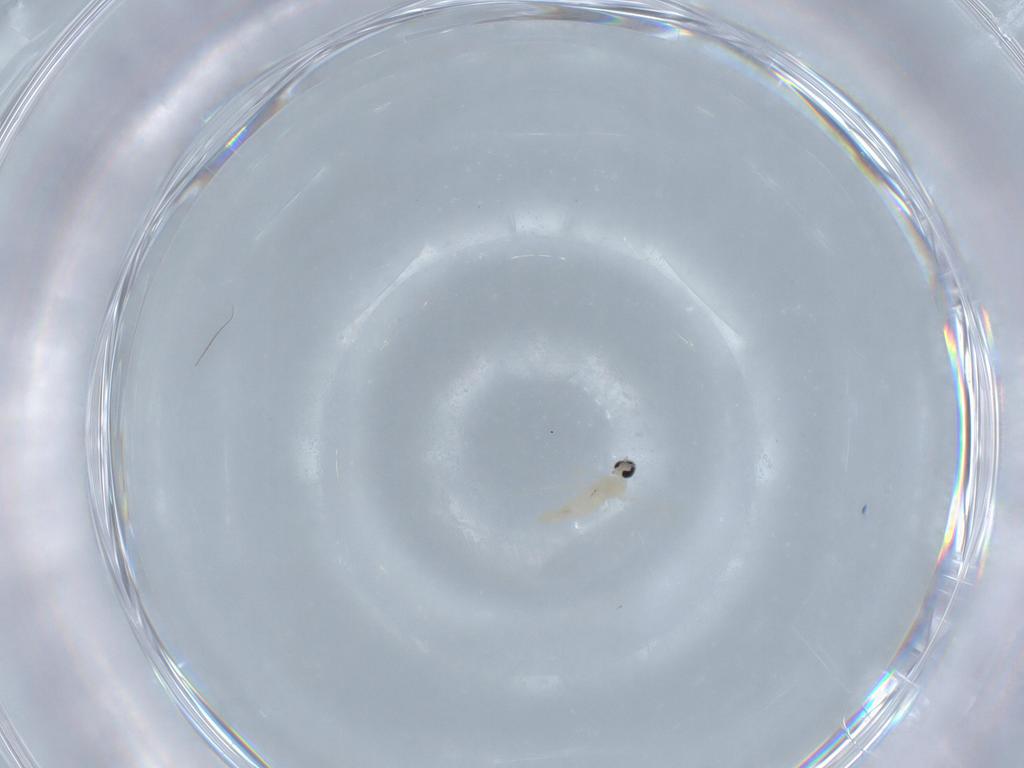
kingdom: Animalia
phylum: Arthropoda
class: Insecta
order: Diptera
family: Cecidomyiidae
